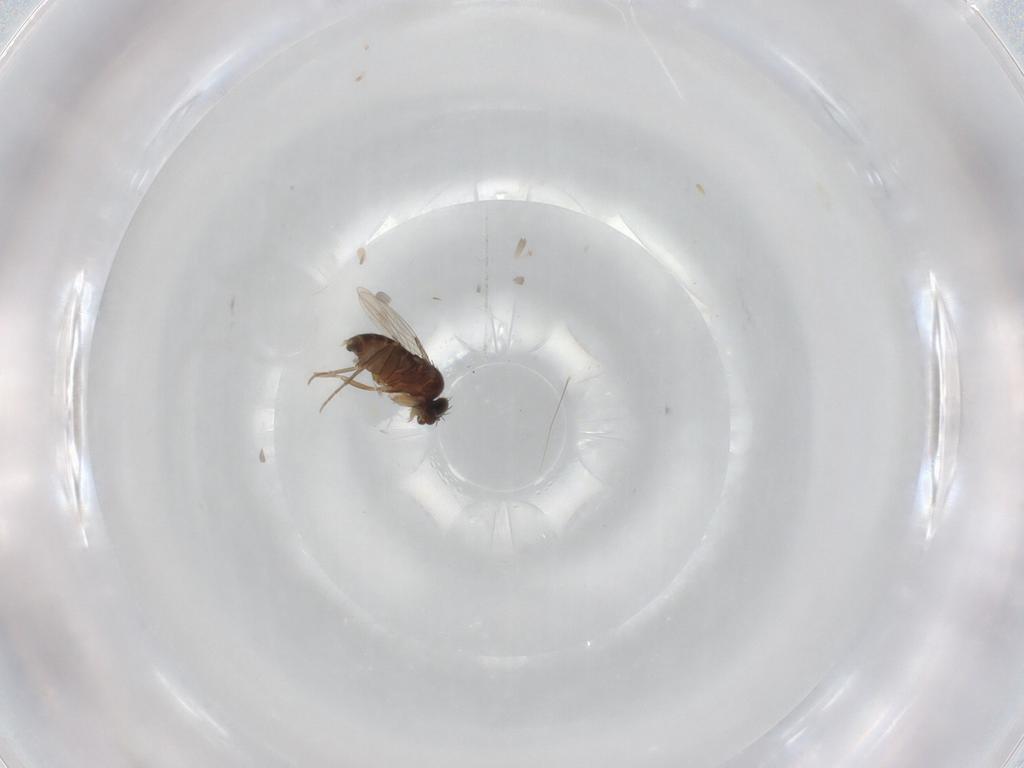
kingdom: Animalia
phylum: Arthropoda
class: Insecta
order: Diptera
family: Phoridae
